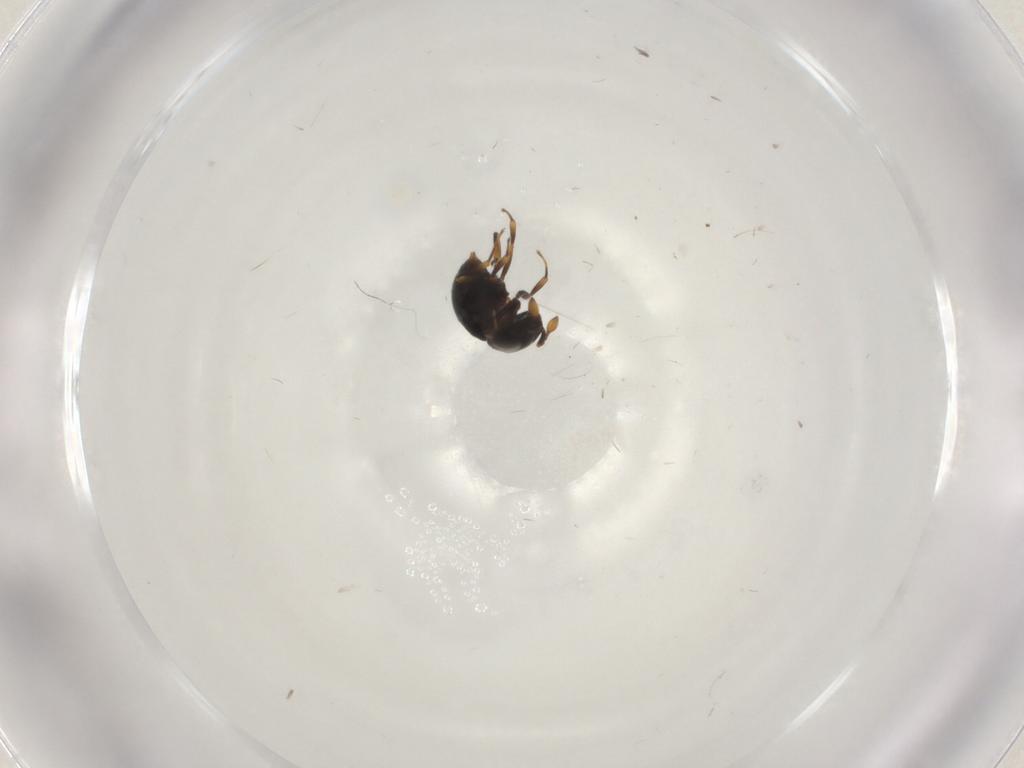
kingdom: Animalia
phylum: Arthropoda
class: Insecta
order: Hymenoptera
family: Scelionidae
